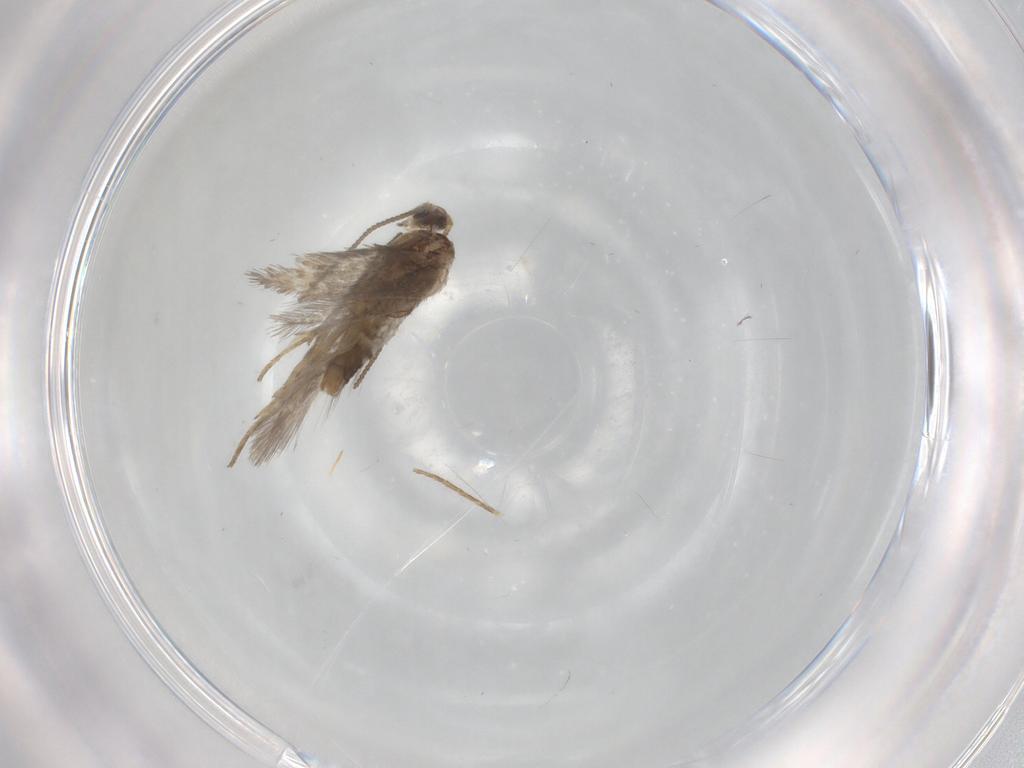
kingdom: Animalia
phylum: Arthropoda
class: Insecta
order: Lepidoptera
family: Nepticulidae
